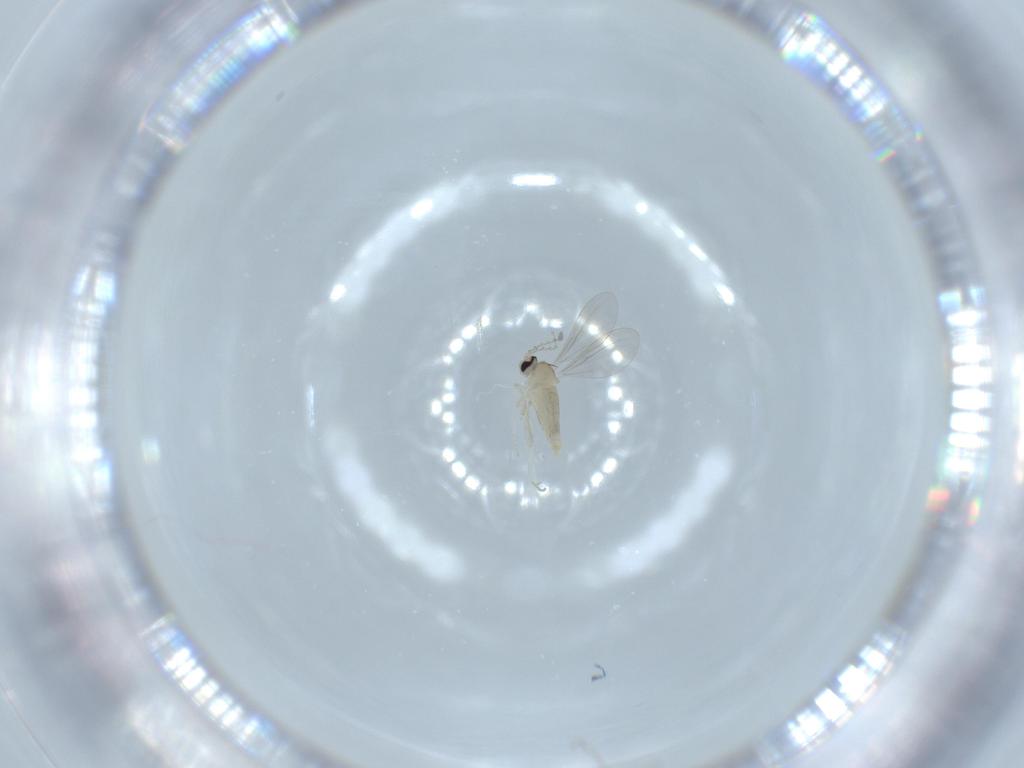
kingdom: Animalia
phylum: Arthropoda
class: Insecta
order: Diptera
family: Cecidomyiidae
